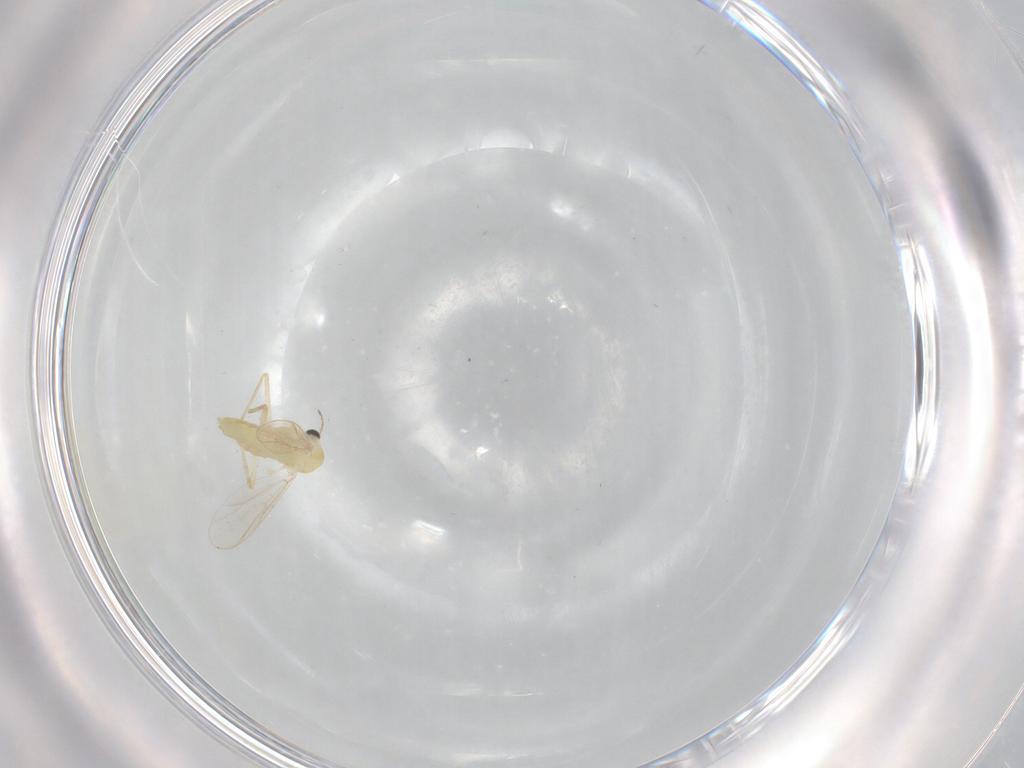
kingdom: Animalia
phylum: Arthropoda
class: Insecta
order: Diptera
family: Chironomidae
